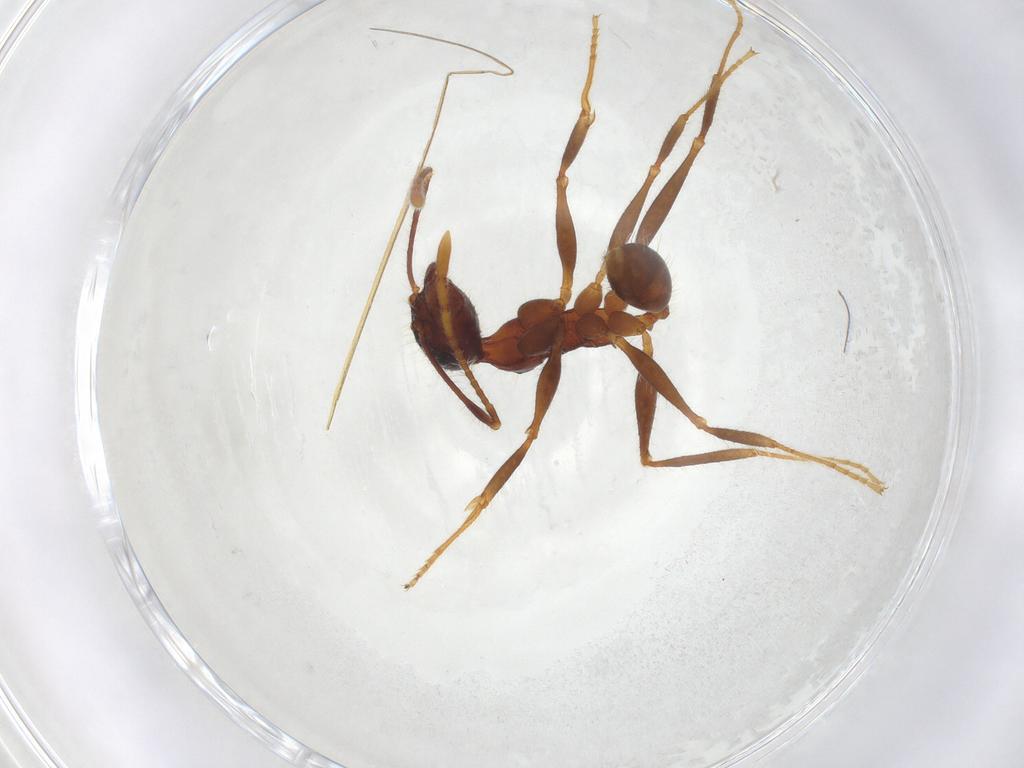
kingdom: Animalia
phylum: Arthropoda
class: Insecta
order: Hymenoptera
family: Formicidae
